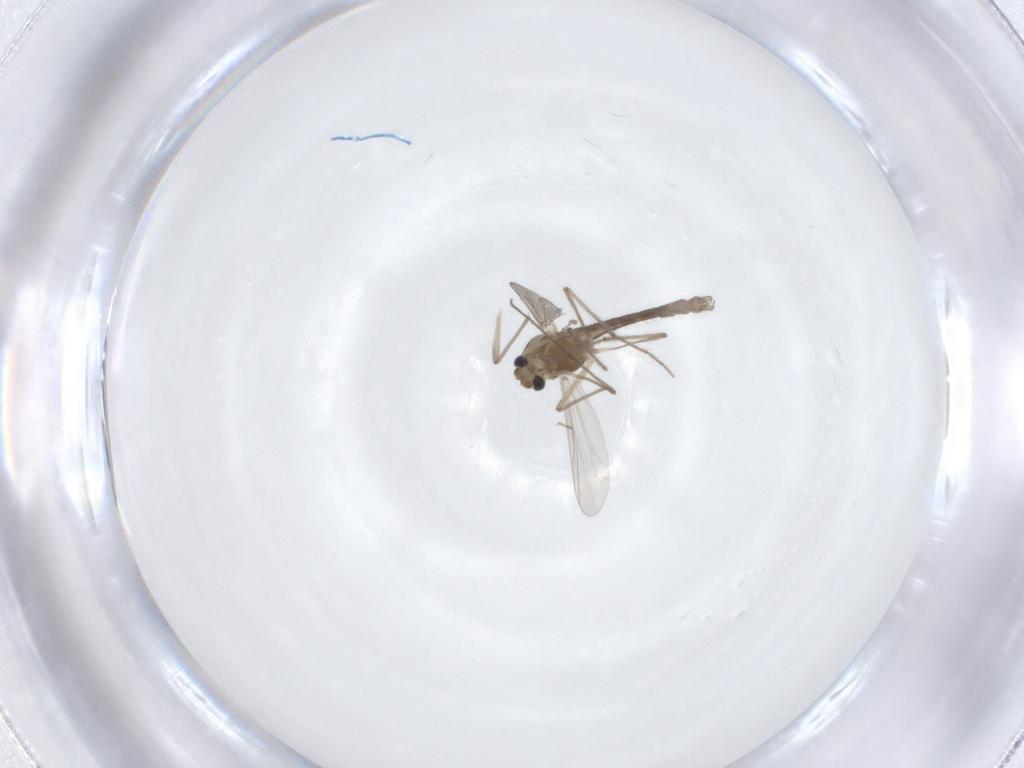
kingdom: Animalia
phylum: Arthropoda
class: Insecta
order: Diptera
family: Chironomidae
